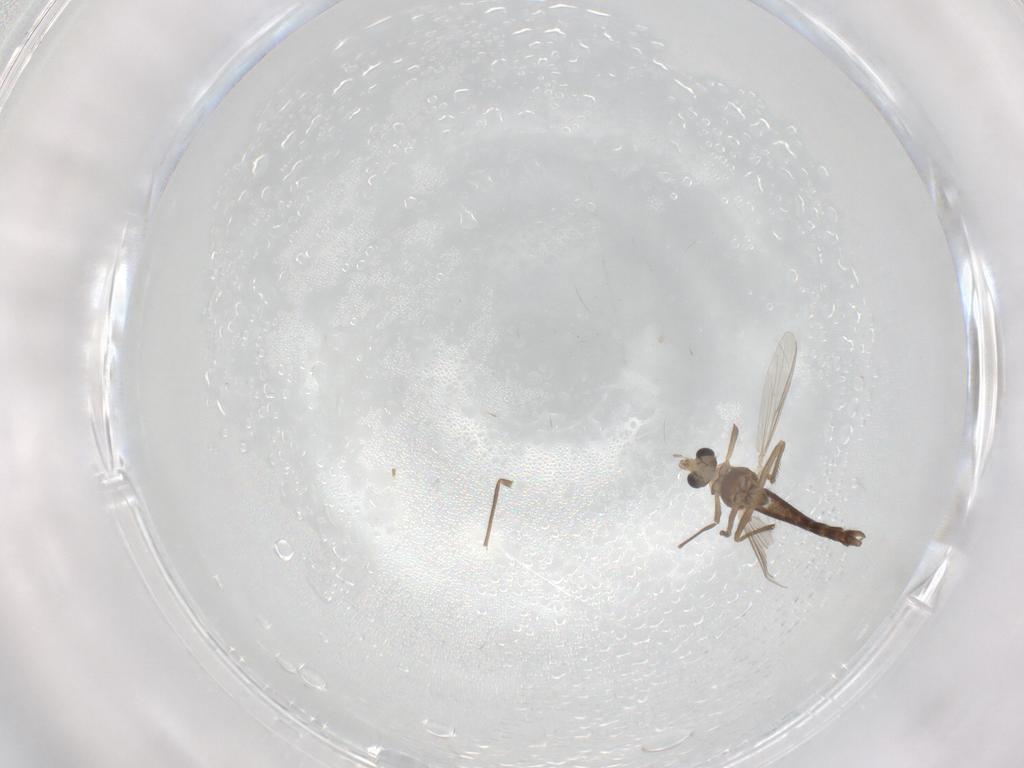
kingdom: Animalia
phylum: Arthropoda
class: Insecta
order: Diptera
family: Chironomidae
